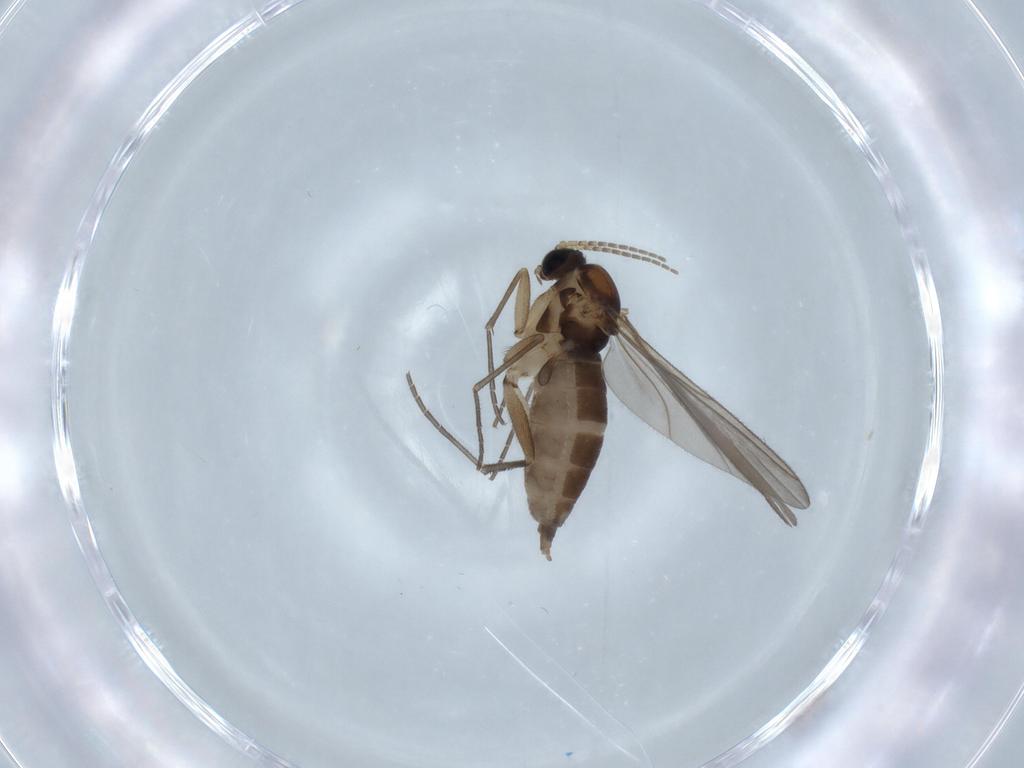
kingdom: Animalia
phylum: Arthropoda
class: Insecta
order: Diptera
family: Sciaridae
